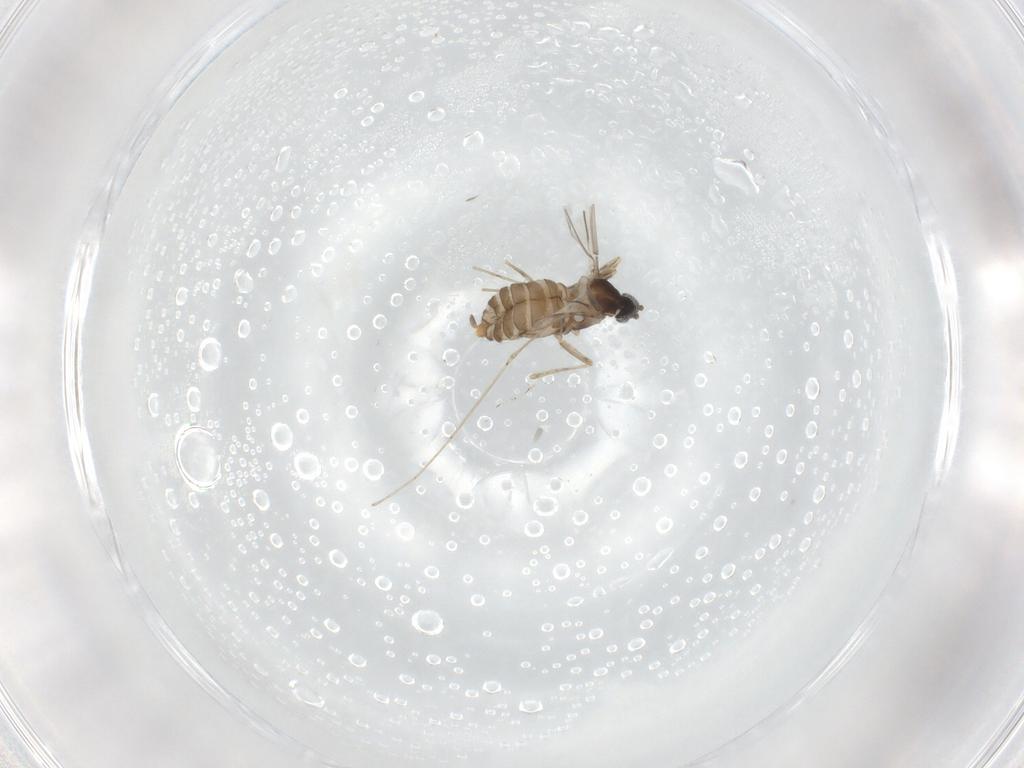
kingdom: Animalia
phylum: Arthropoda
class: Insecta
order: Diptera
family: Cecidomyiidae
